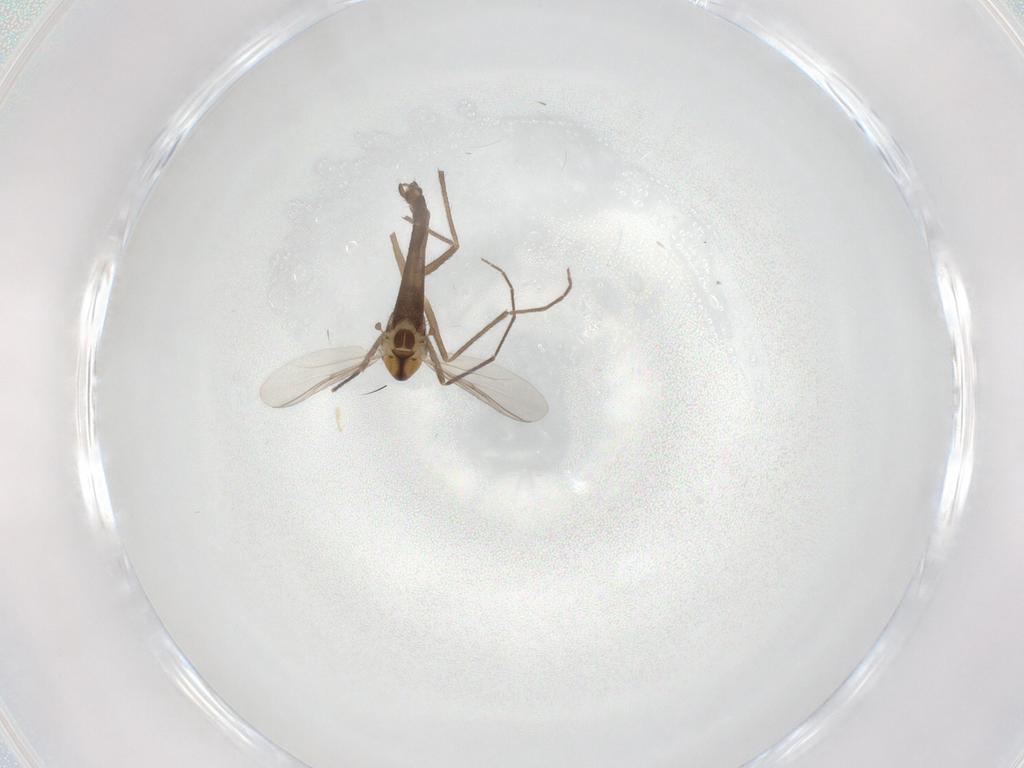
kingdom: Animalia
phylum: Arthropoda
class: Insecta
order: Diptera
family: Chironomidae
